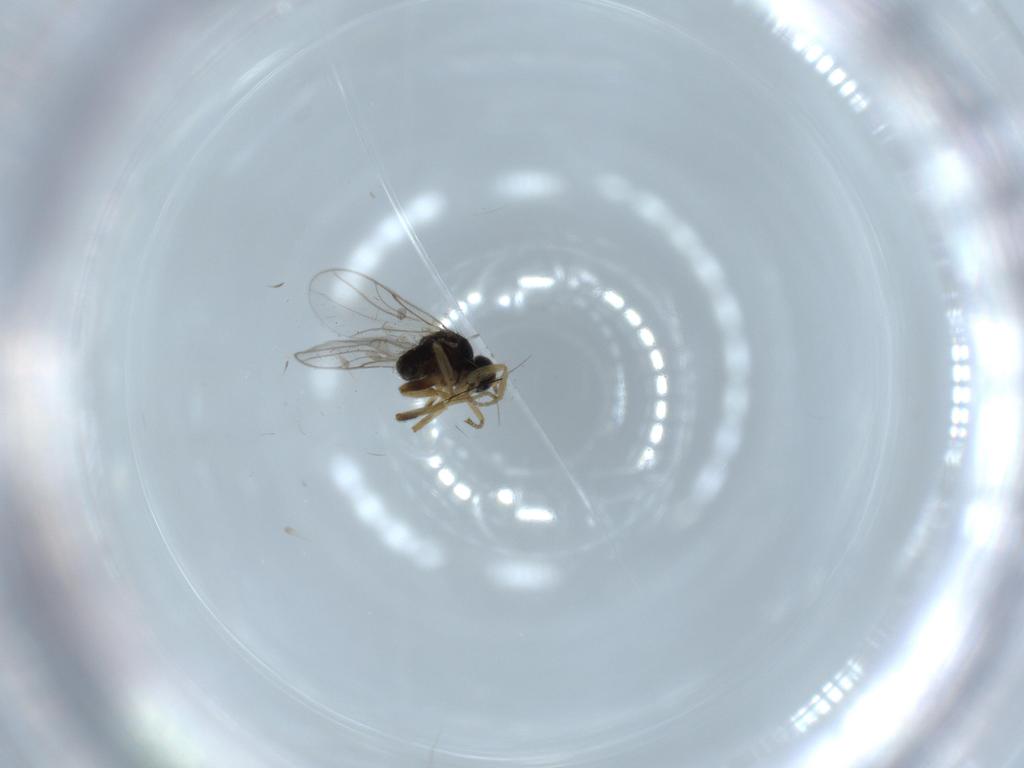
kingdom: Animalia
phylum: Arthropoda
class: Insecta
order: Diptera
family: Hybotidae
